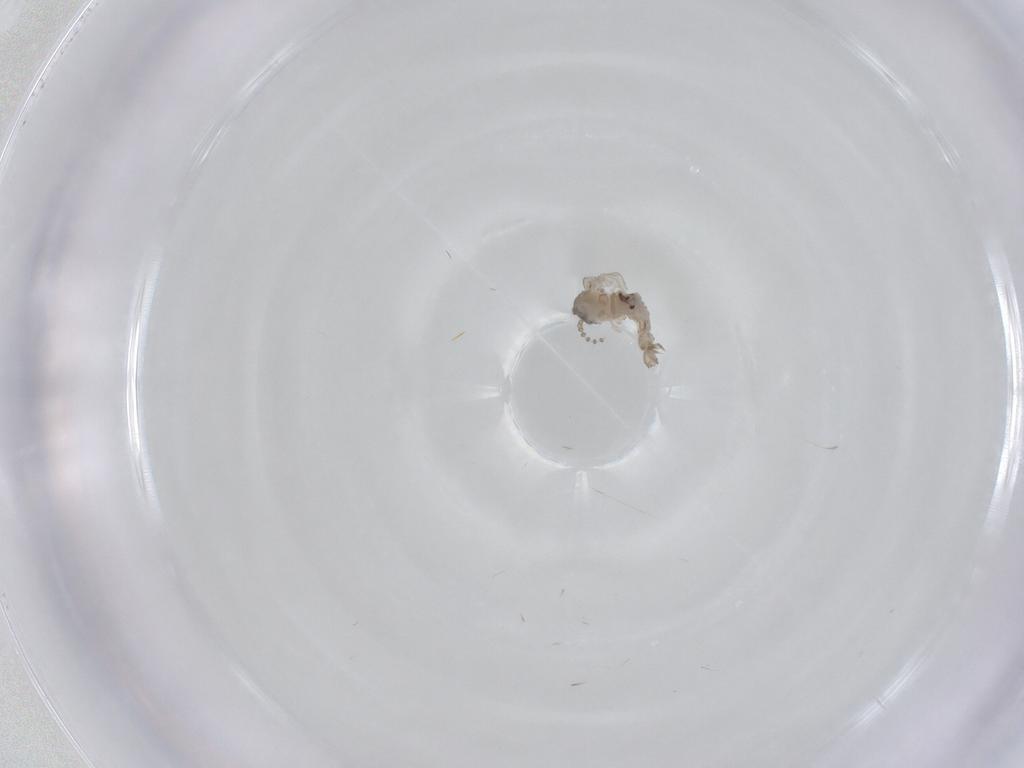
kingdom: Animalia
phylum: Arthropoda
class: Insecta
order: Diptera
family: Psychodidae
